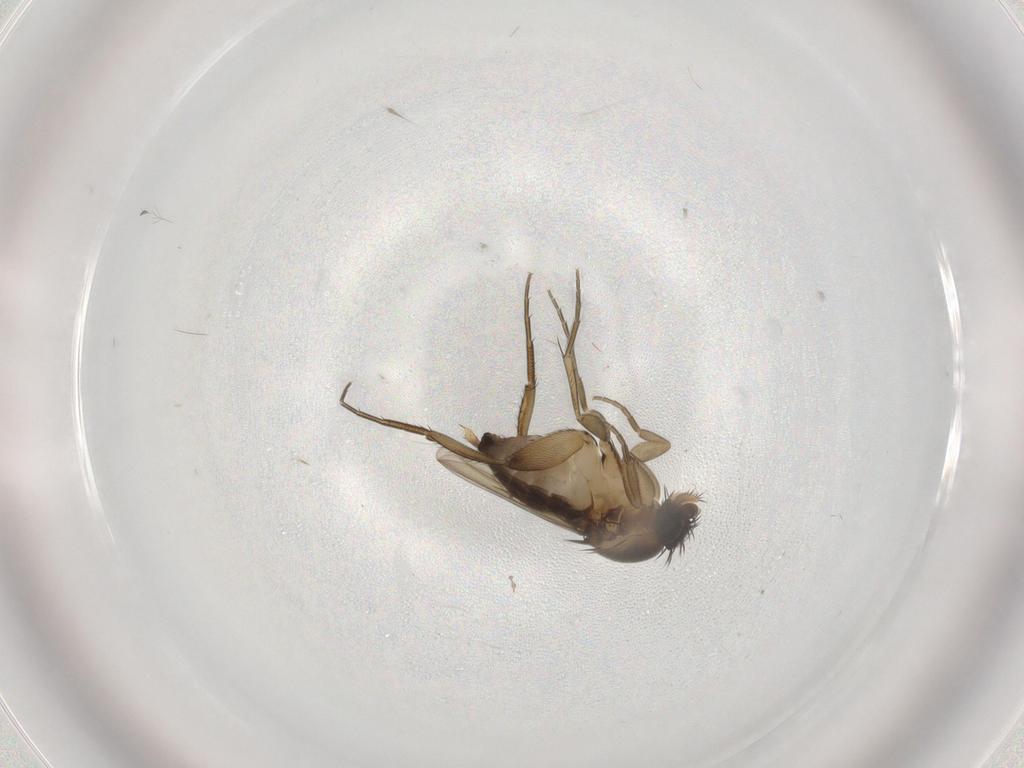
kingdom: Animalia
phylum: Arthropoda
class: Insecta
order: Diptera
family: Phoridae
